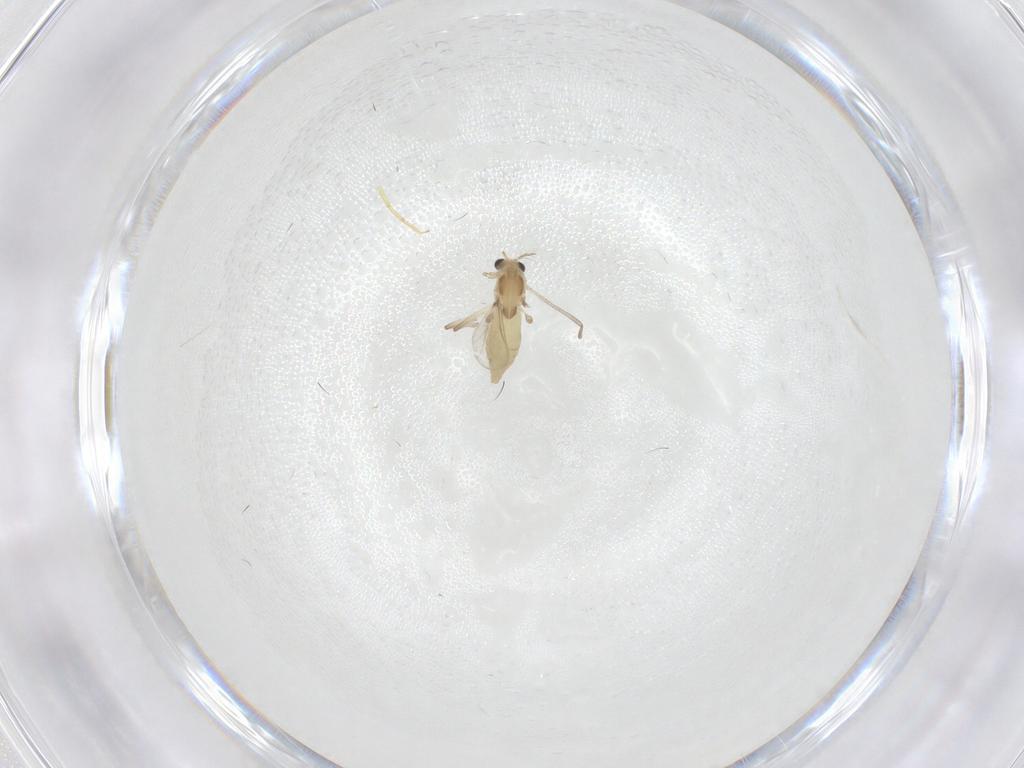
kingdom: Animalia
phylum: Arthropoda
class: Insecta
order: Diptera
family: Chironomidae
